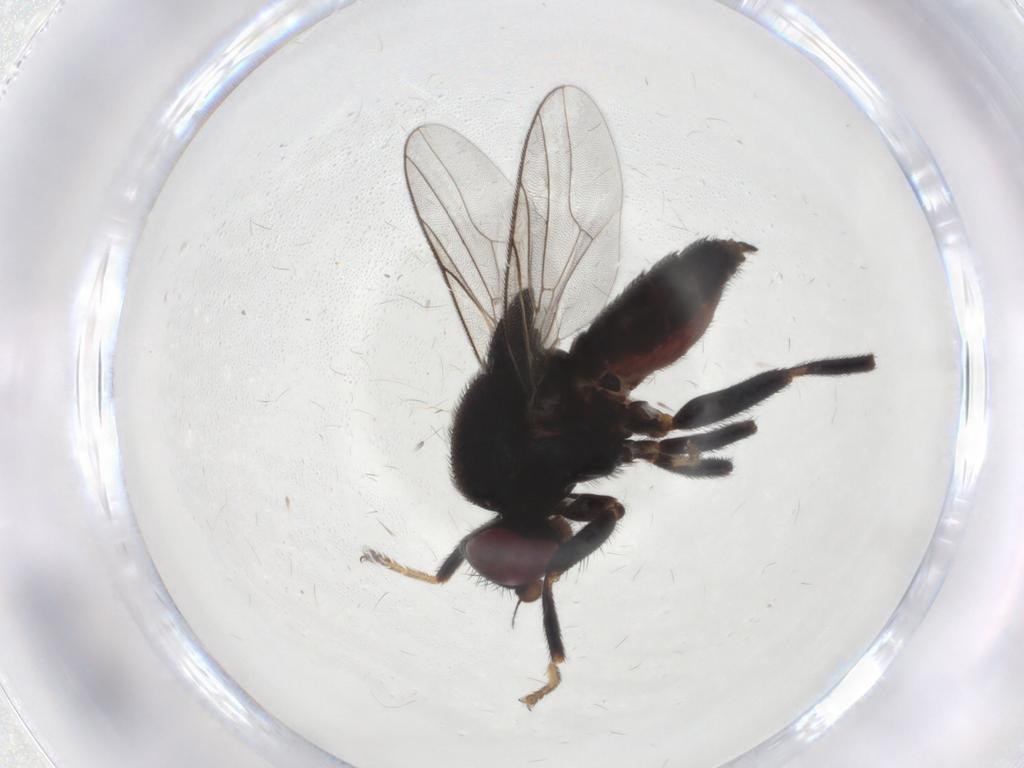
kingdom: Animalia
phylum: Arthropoda
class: Insecta
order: Diptera
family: Chloropidae
